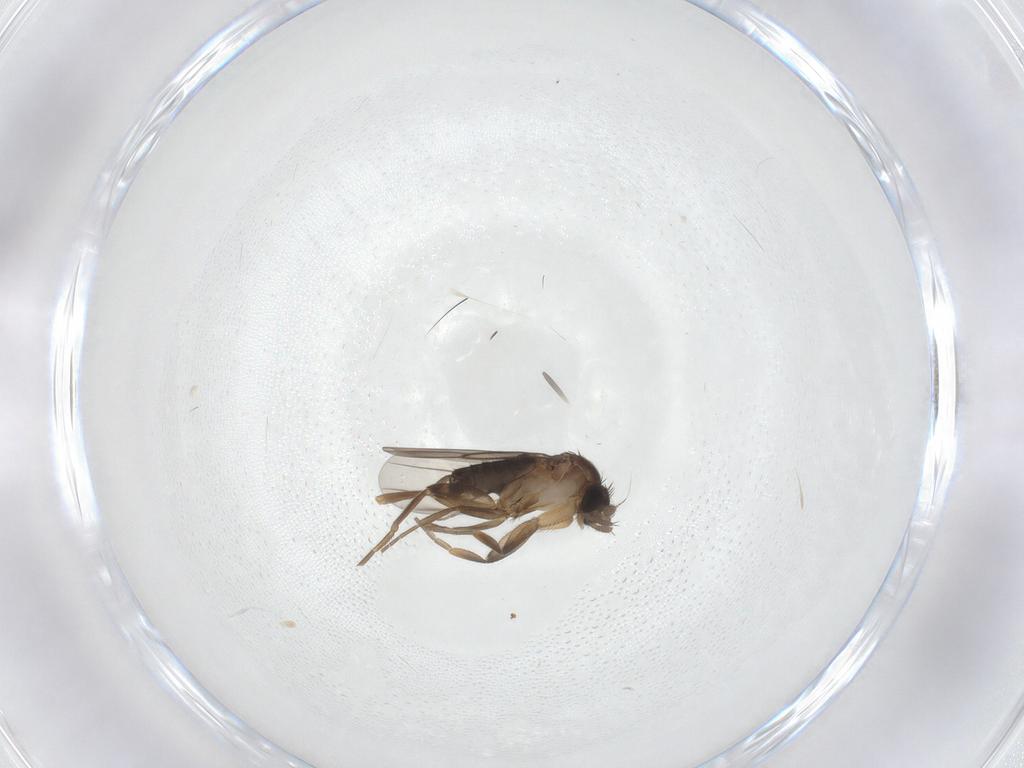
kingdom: Animalia
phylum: Arthropoda
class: Insecta
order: Diptera
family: Phoridae
